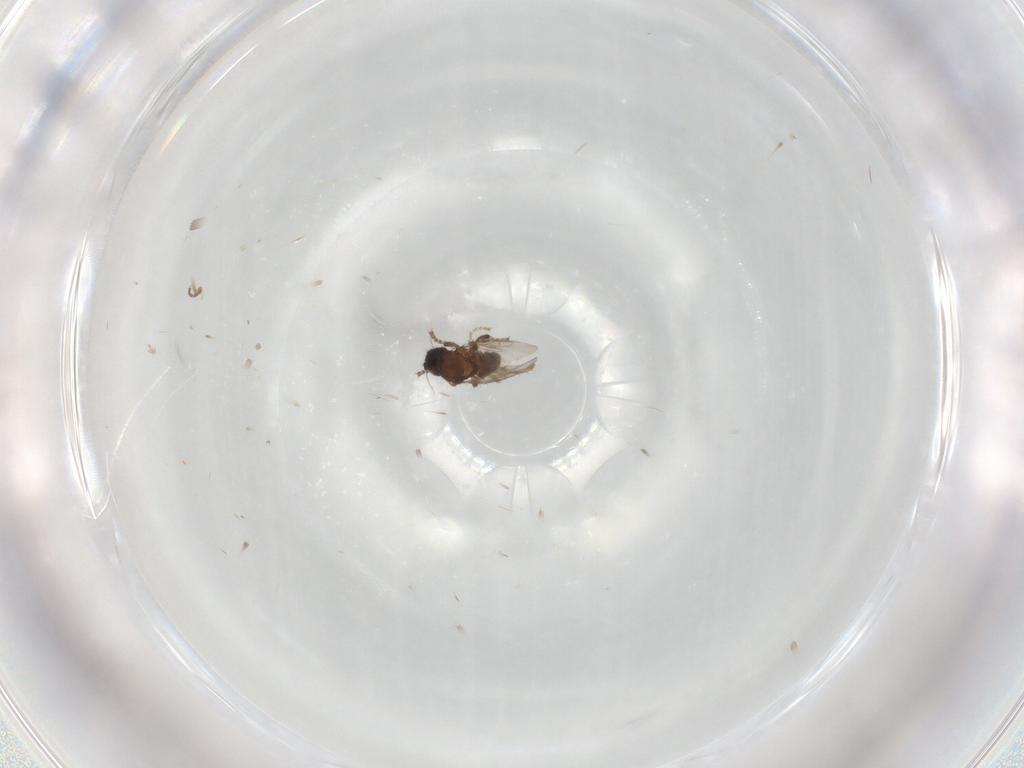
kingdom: Animalia
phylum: Arthropoda
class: Insecta
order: Diptera
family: Sphaeroceridae
